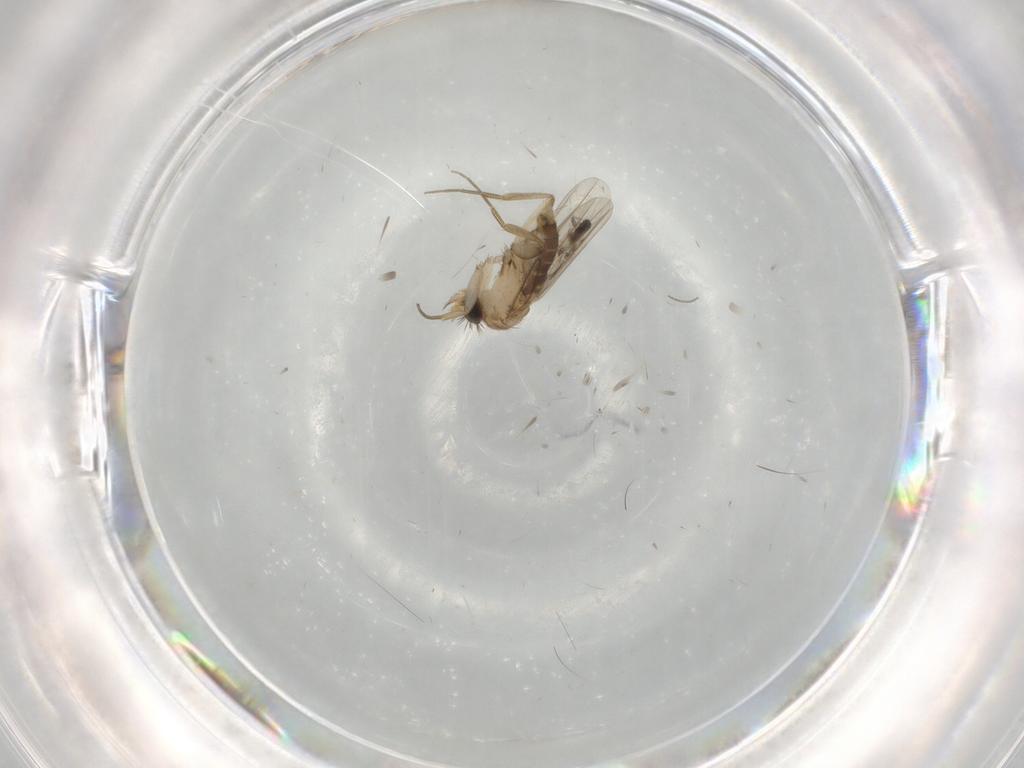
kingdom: Animalia
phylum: Arthropoda
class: Insecta
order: Diptera
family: Phoridae
